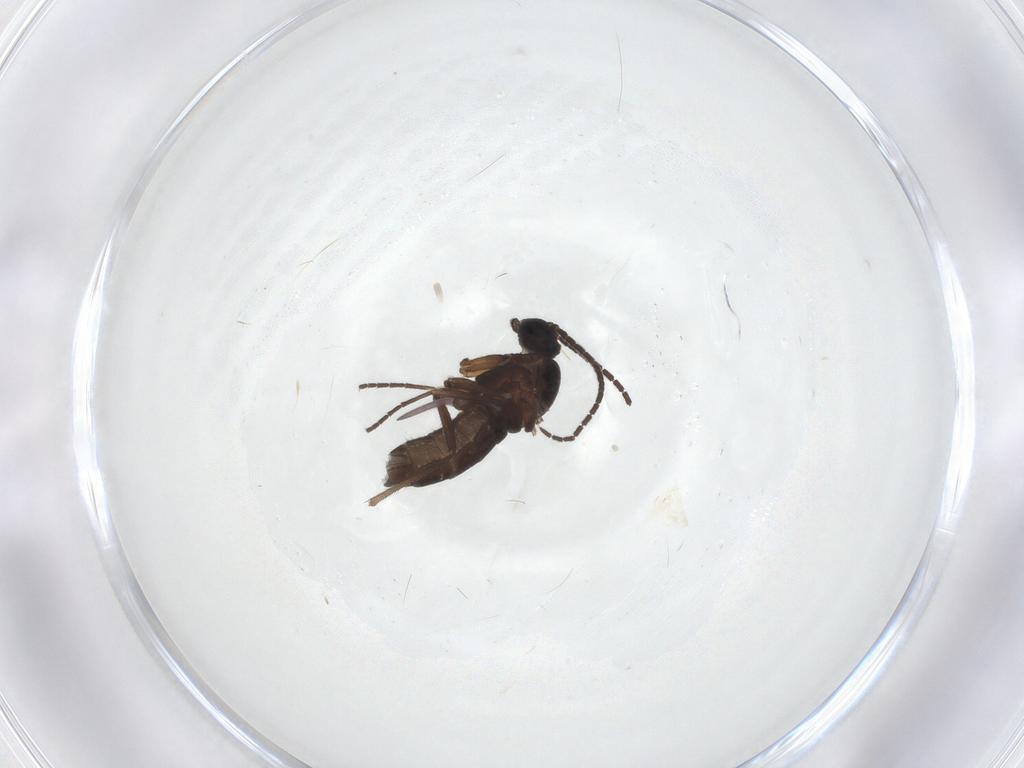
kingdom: Animalia
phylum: Arthropoda
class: Insecta
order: Diptera
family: Sciaridae
